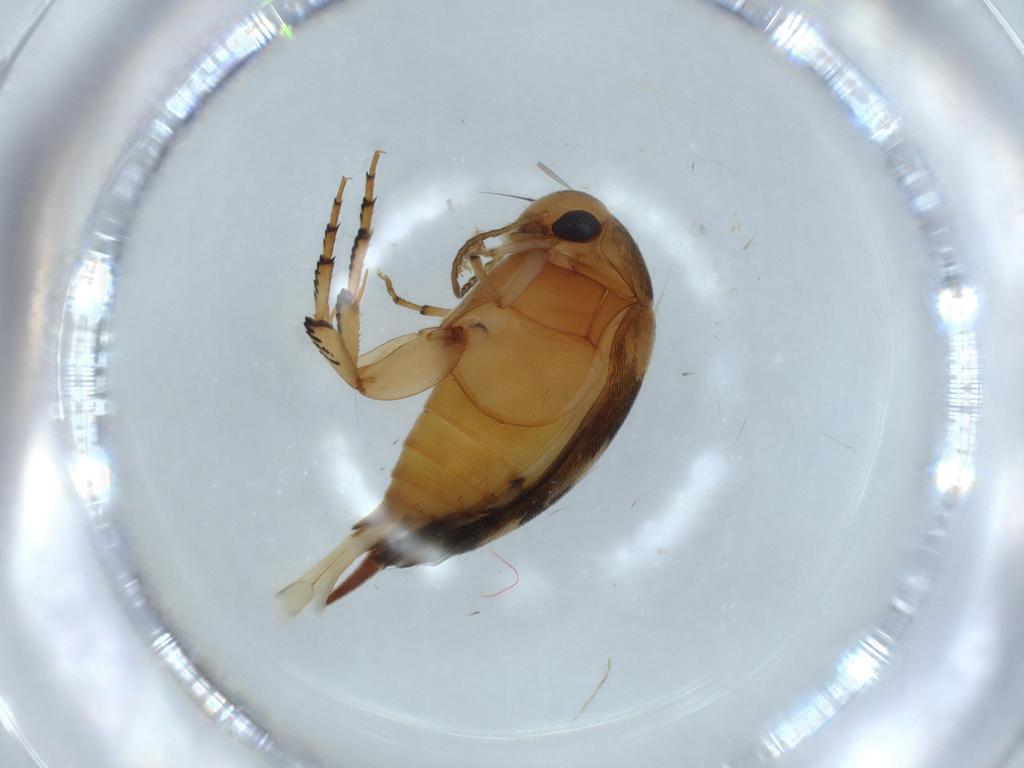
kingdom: Animalia
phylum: Arthropoda
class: Insecta
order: Coleoptera
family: Mordellidae
